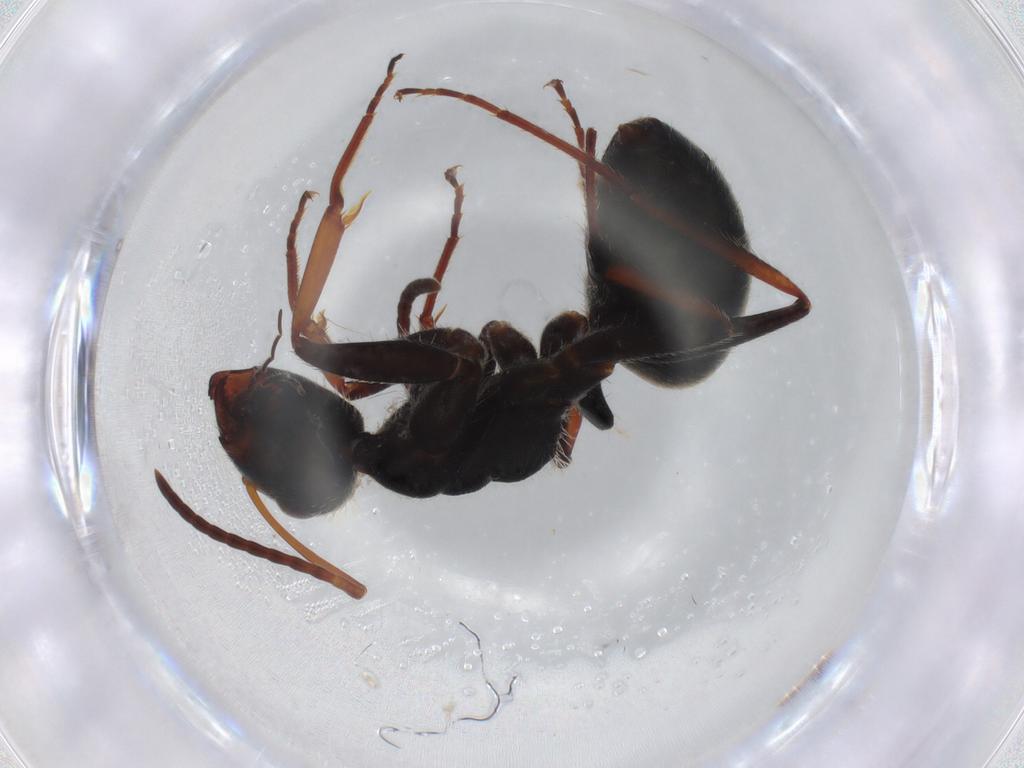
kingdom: Animalia
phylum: Arthropoda
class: Insecta
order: Hymenoptera
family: Formicidae
